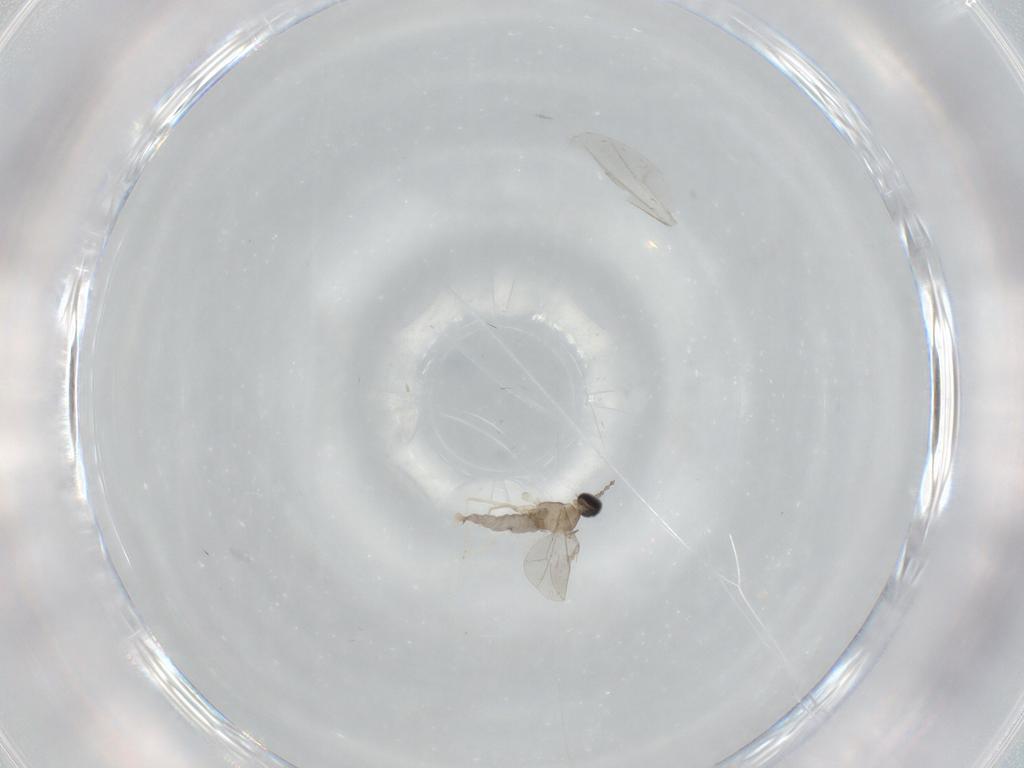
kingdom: Animalia
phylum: Arthropoda
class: Insecta
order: Diptera
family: Cecidomyiidae
